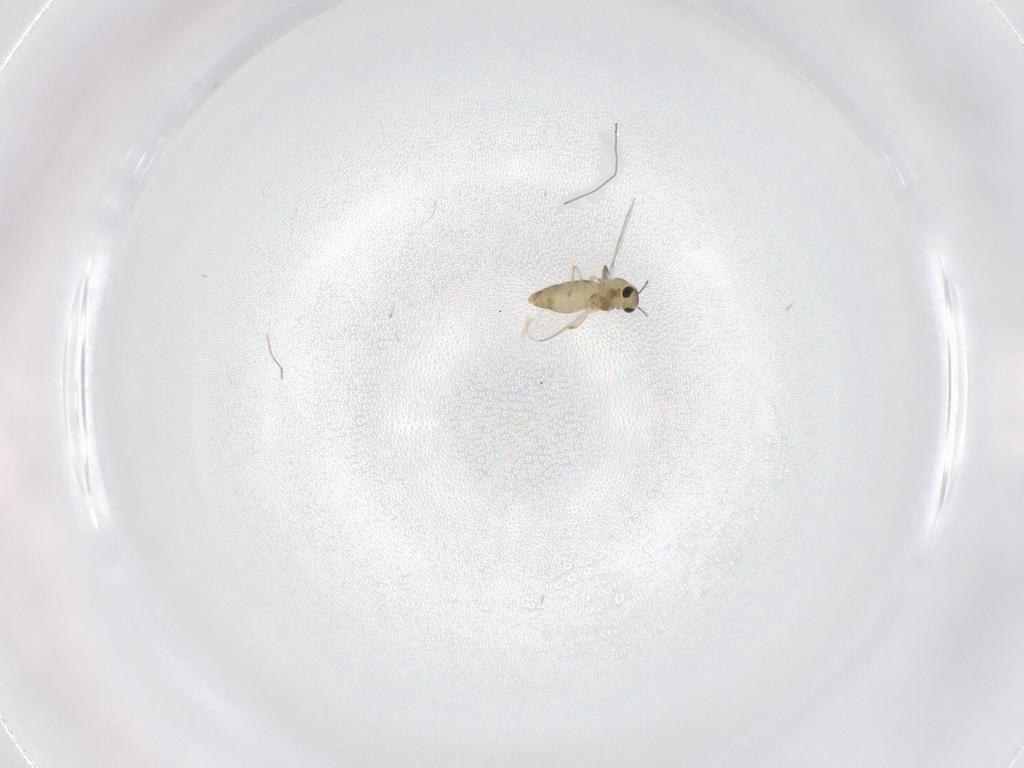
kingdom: Animalia
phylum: Arthropoda
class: Insecta
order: Diptera
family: Chironomidae
